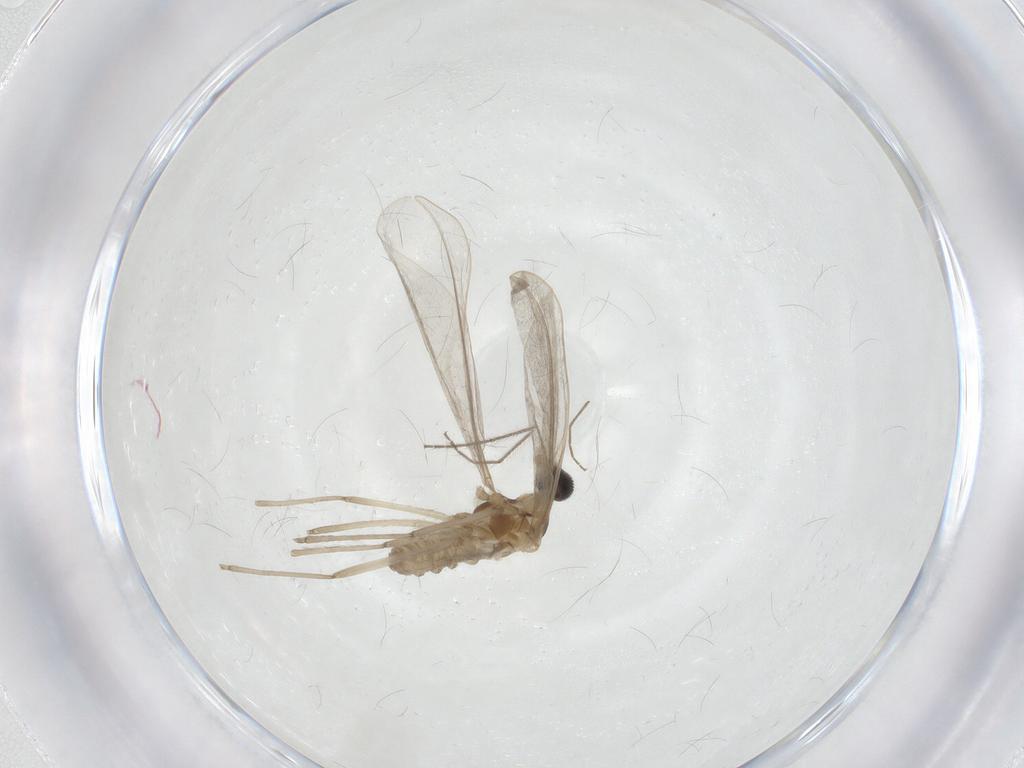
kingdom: Animalia
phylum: Arthropoda
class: Insecta
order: Diptera
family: Cecidomyiidae
